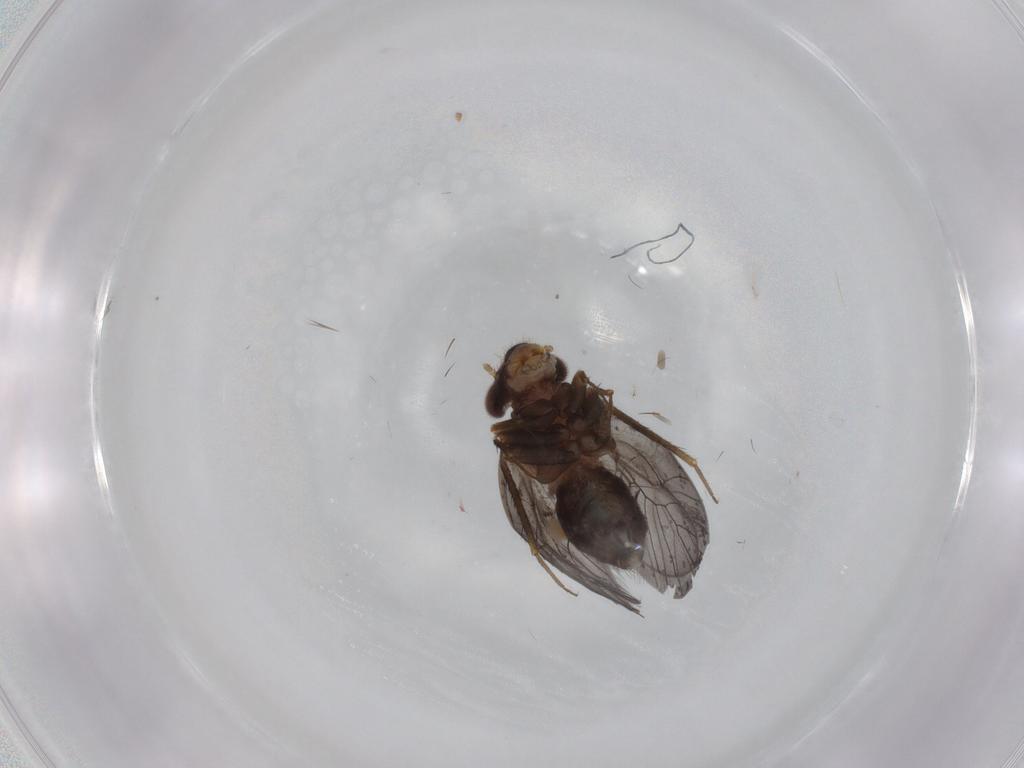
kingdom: Animalia
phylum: Arthropoda
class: Insecta
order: Psocodea
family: Lepidopsocidae
